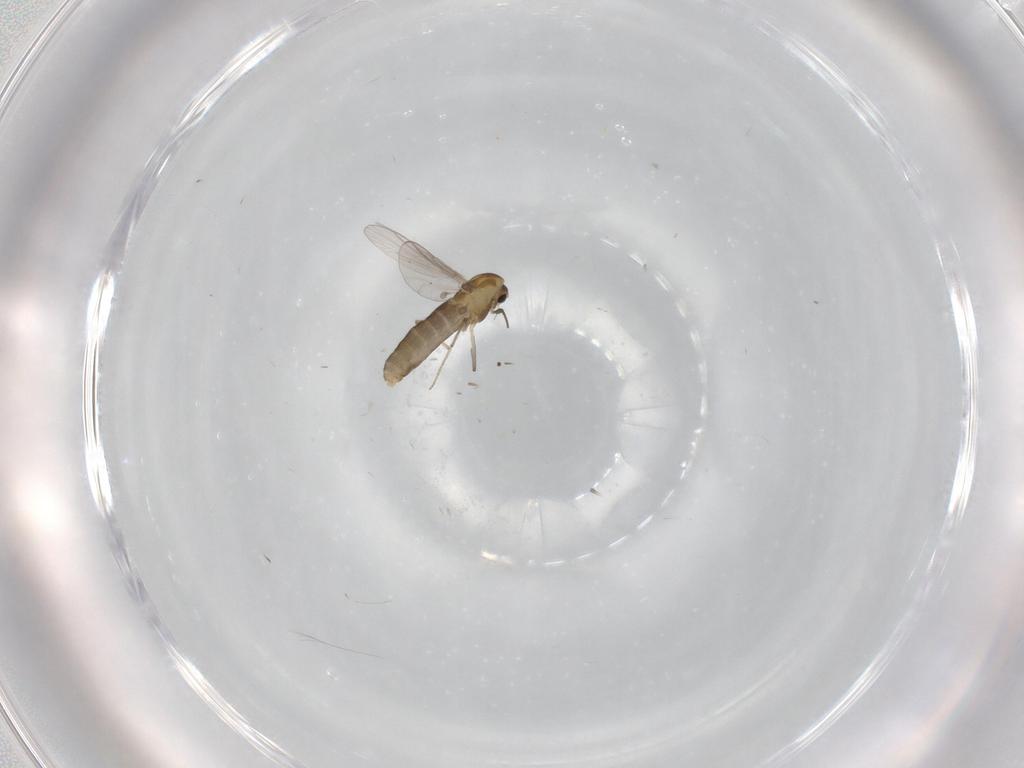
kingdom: Animalia
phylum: Arthropoda
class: Insecta
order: Diptera
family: Chironomidae
